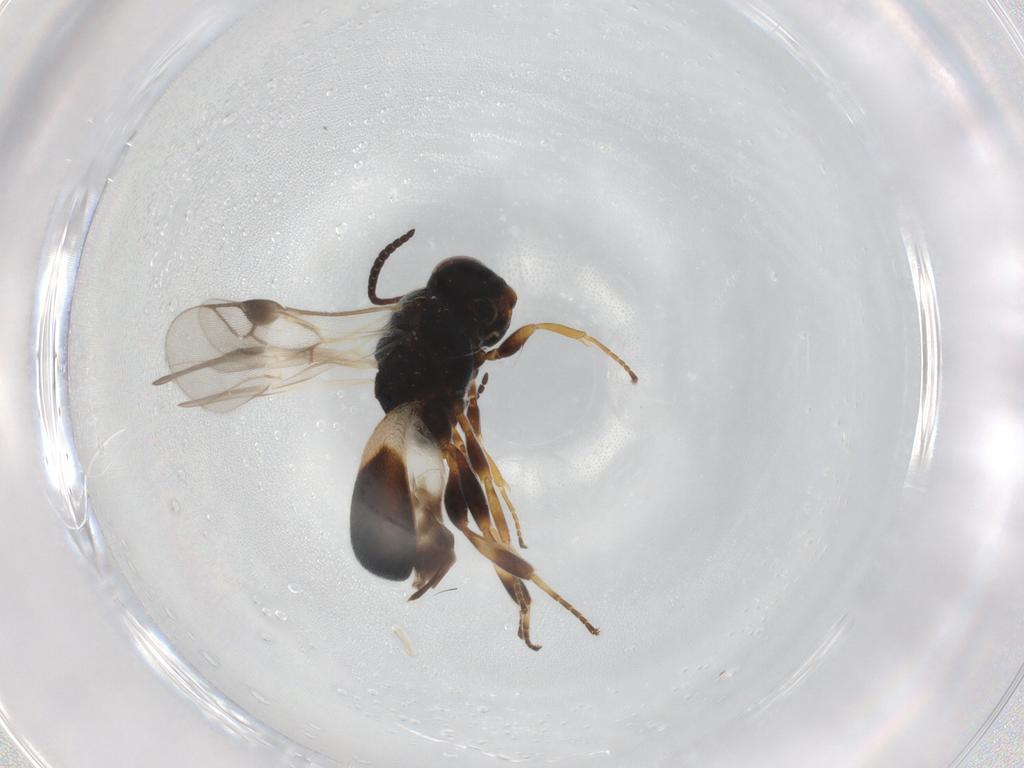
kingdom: Animalia
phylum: Arthropoda
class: Insecta
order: Hymenoptera
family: Braconidae
